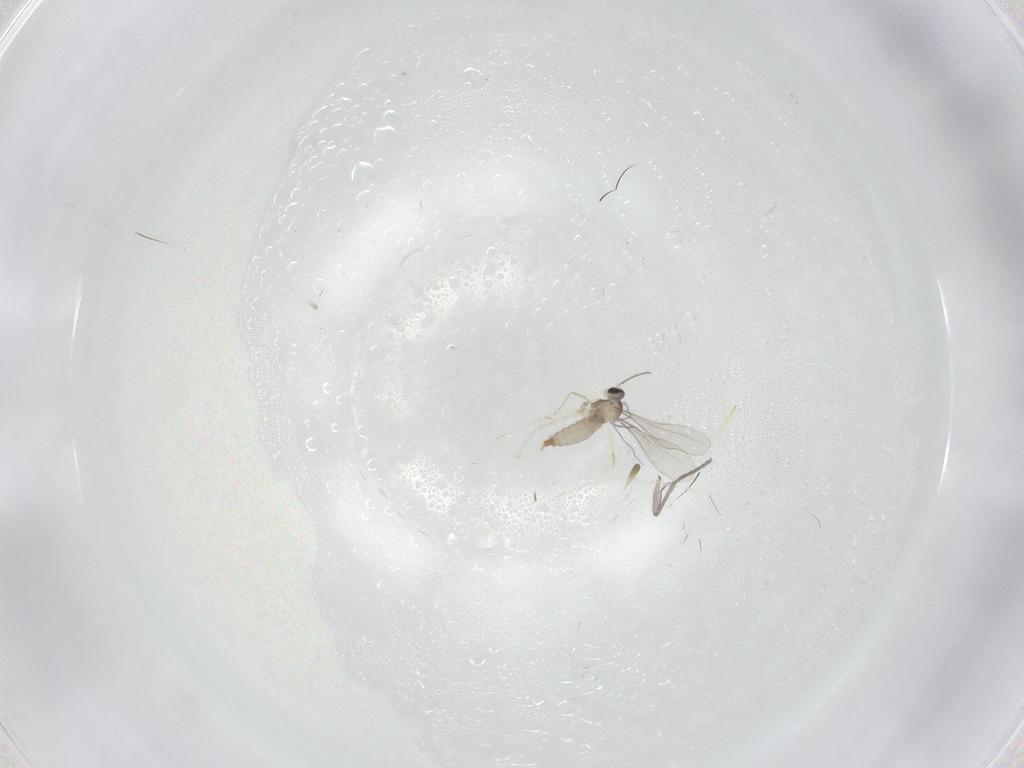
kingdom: Animalia
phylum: Arthropoda
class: Insecta
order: Diptera
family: Sciaridae
